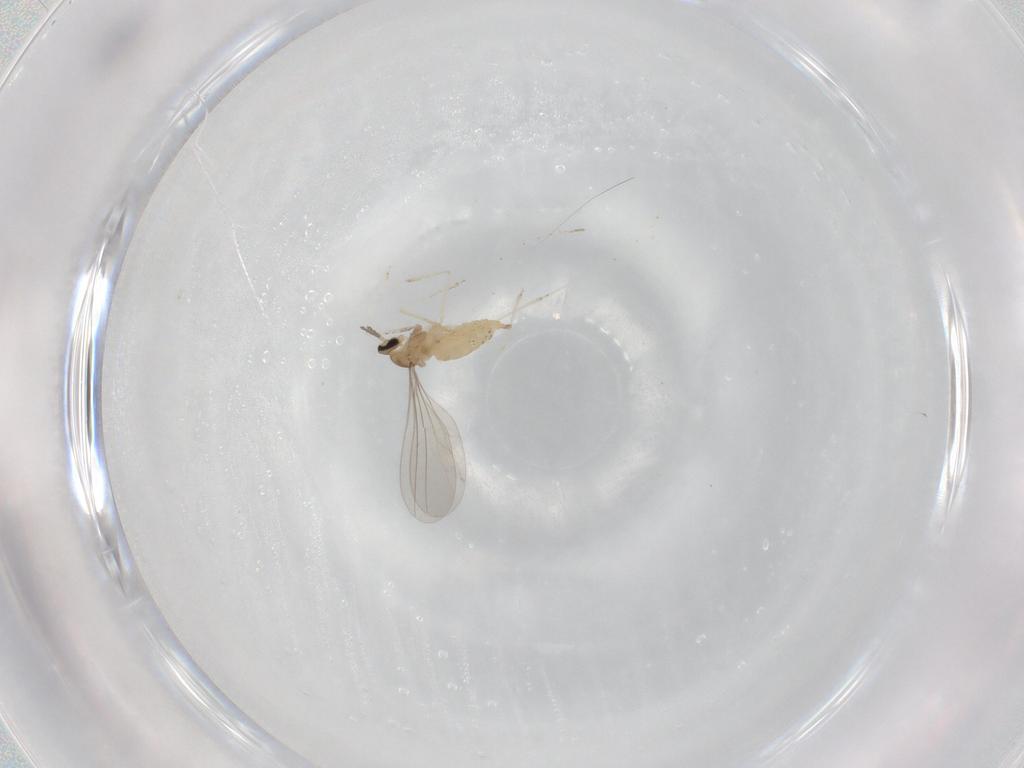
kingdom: Animalia
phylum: Arthropoda
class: Insecta
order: Diptera
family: Cecidomyiidae
